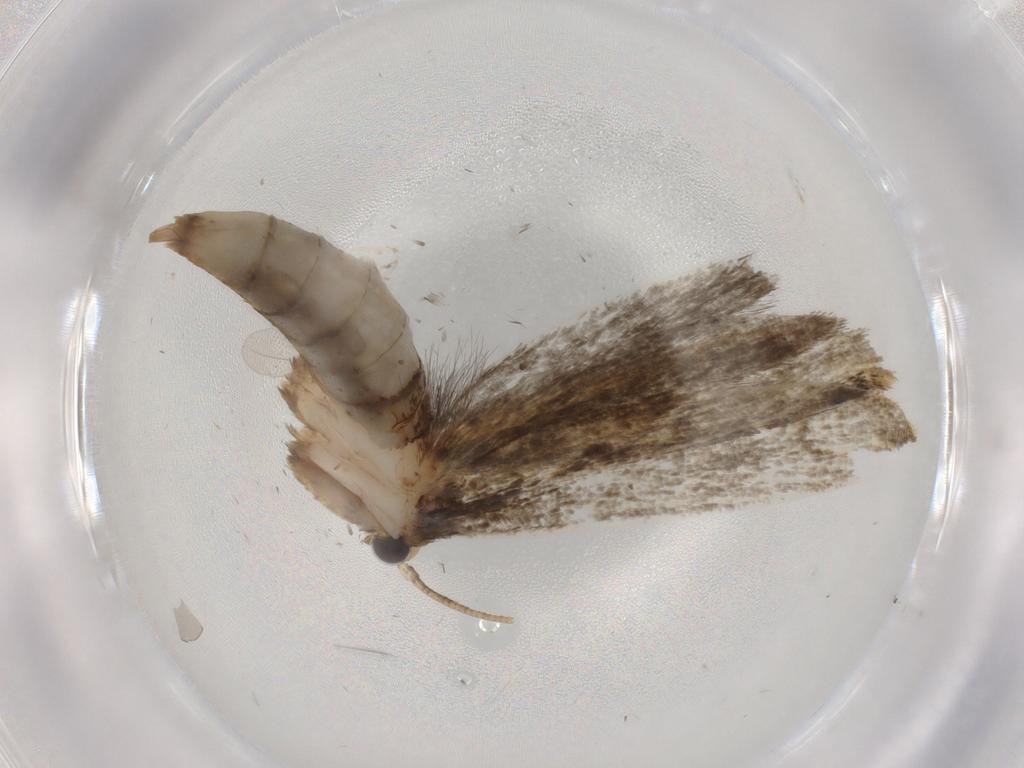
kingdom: Animalia
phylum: Arthropoda
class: Insecta
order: Lepidoptera
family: Tineidae
